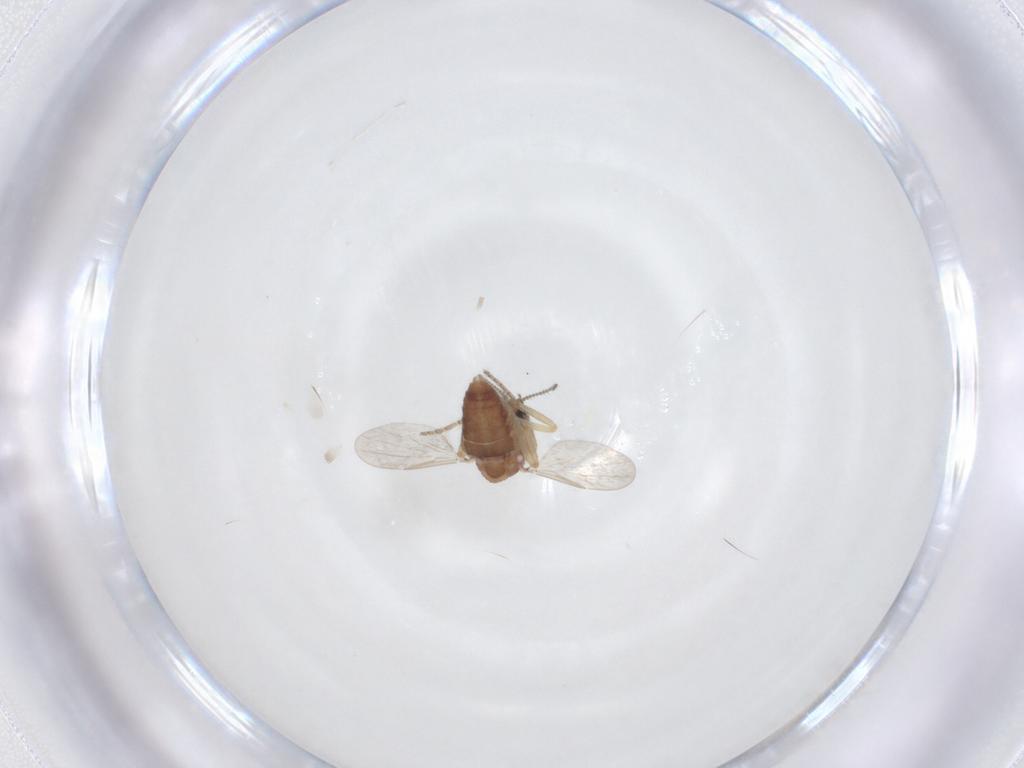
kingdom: Animalia
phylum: Arthropoda
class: Insecta
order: Diptera
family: Ceratopogonidae
